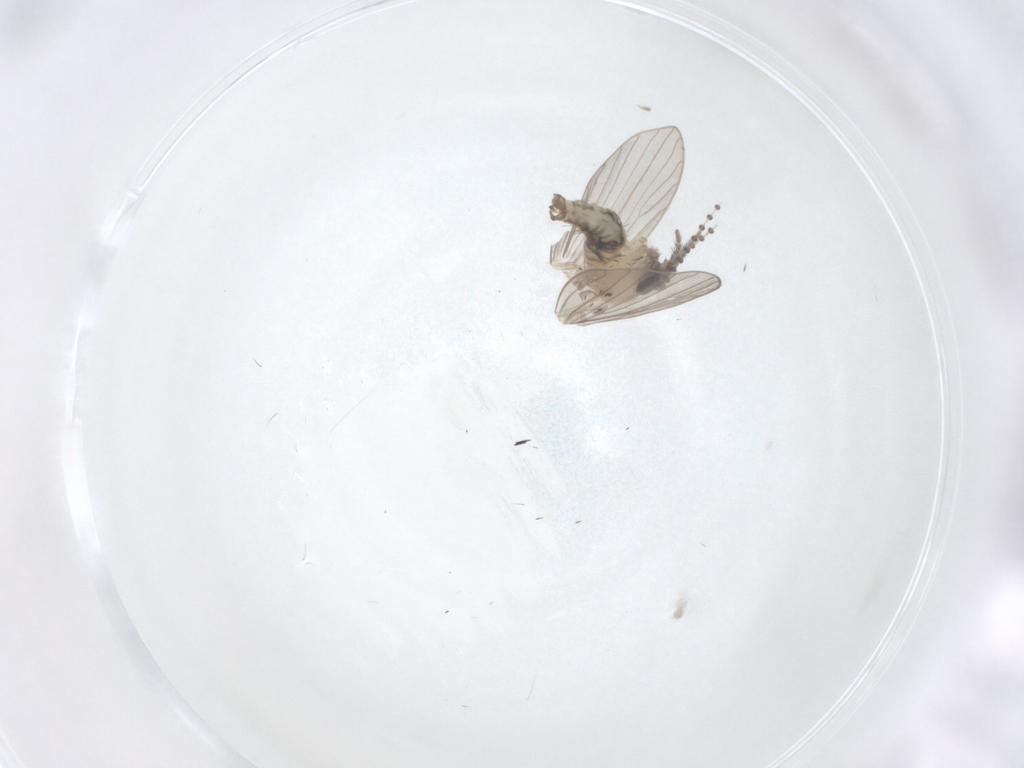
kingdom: Animalia
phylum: Arthropoda
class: Insecta
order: Diptera
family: Psychodidae
